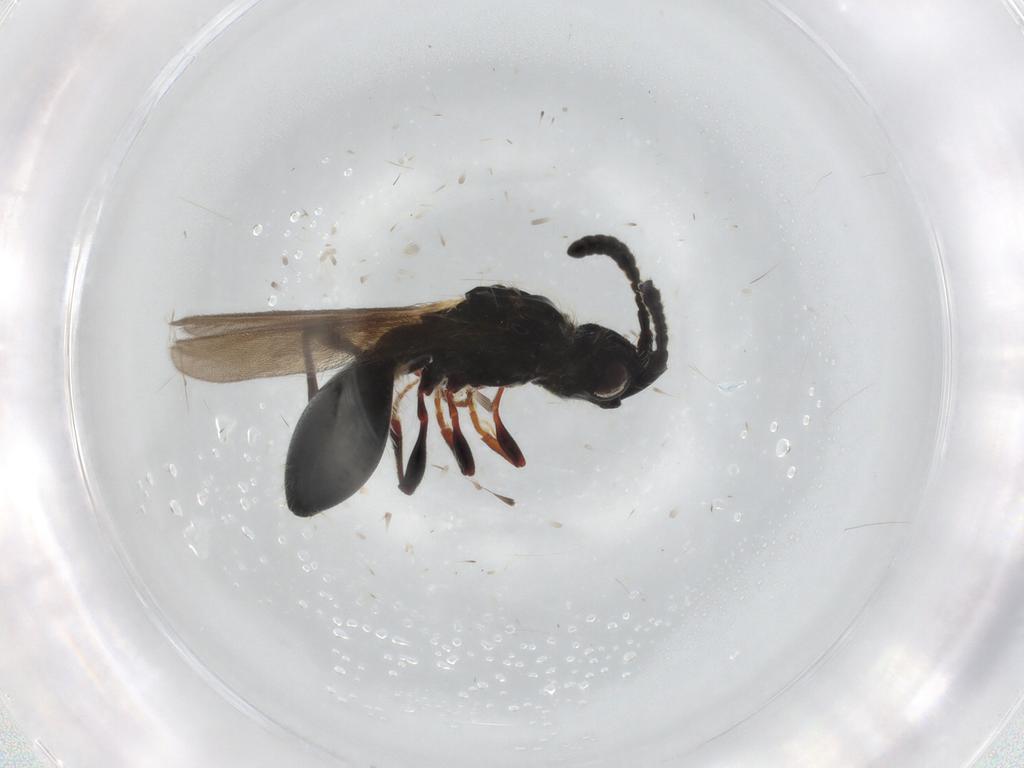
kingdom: Animalia
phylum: Arthropoda
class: Insecta
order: Hymenoptera
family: Diapriidae
